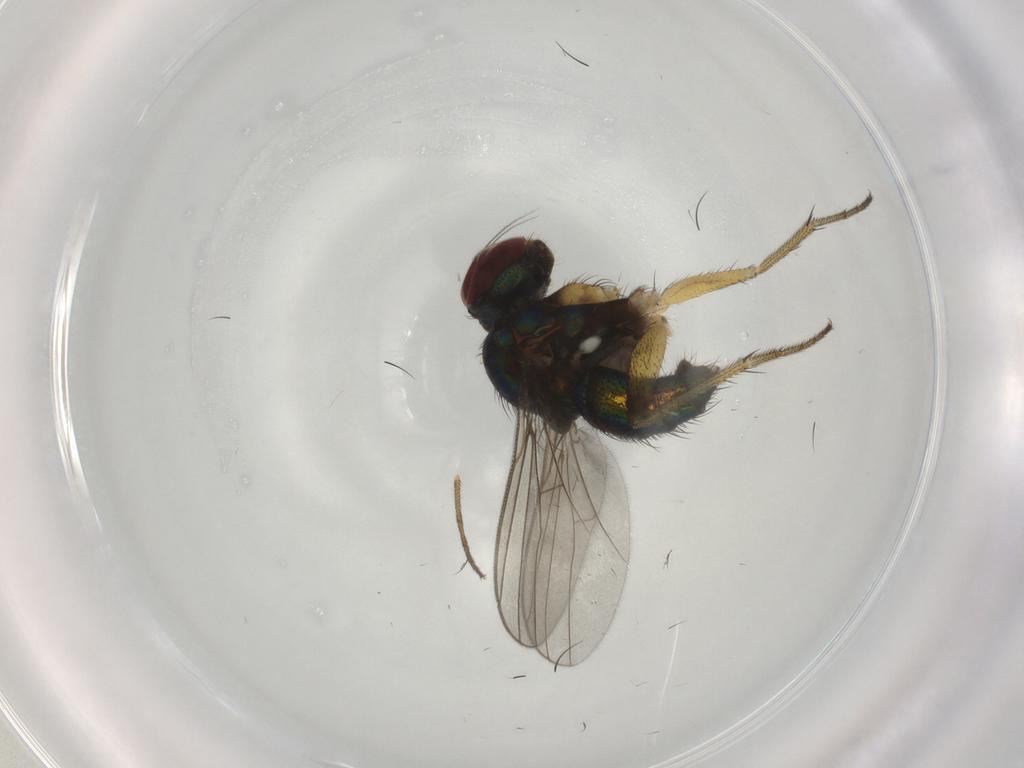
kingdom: Animalia
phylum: Arthropoda
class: Insecta
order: Diptera
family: Dolichopodidae
